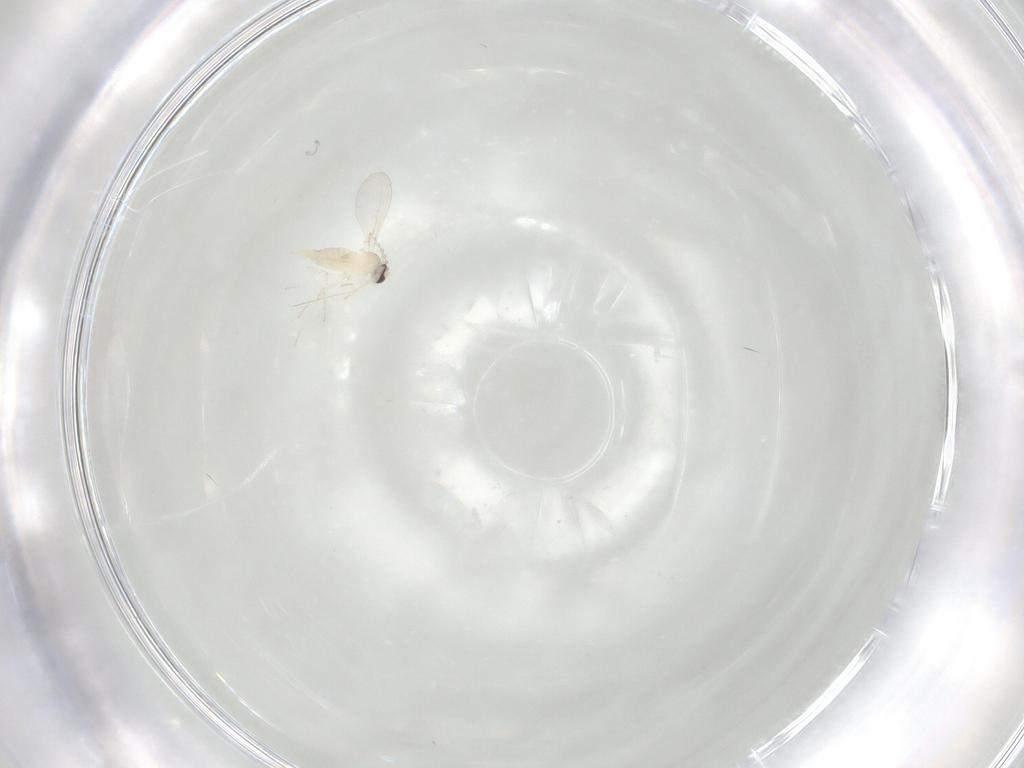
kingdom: Animalia
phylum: Arthropoda
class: Insecta
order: Diptera
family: Cecidomyiidae
